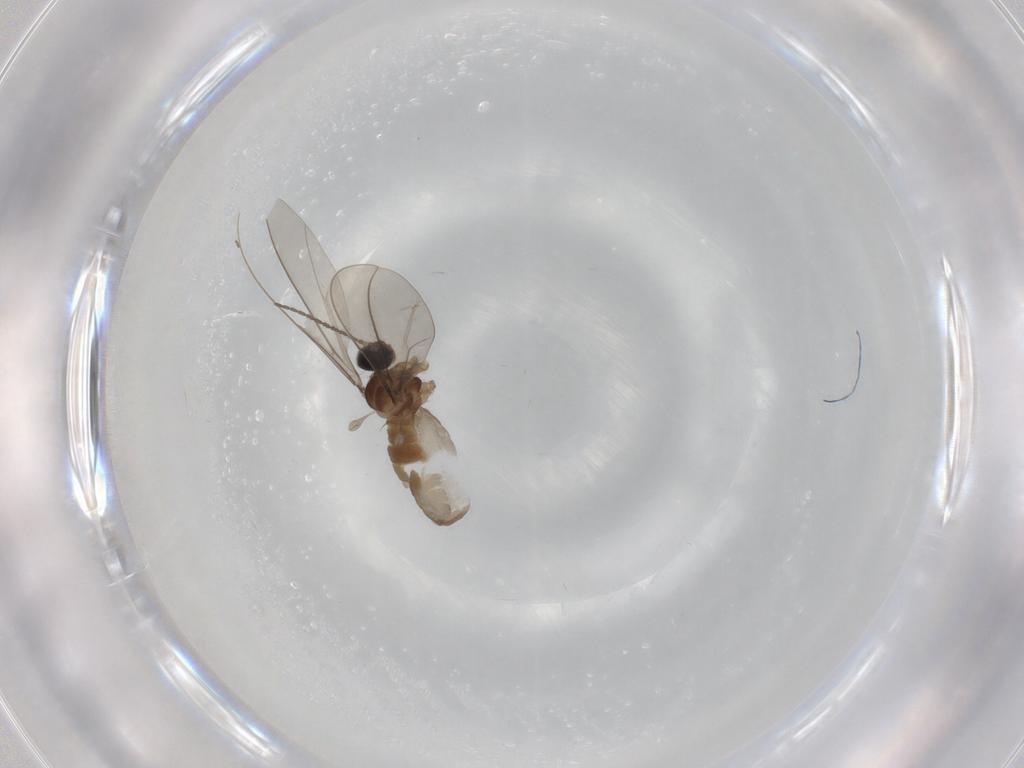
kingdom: Animalia
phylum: Arthropoda
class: Insecta
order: Diptera
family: Cecidomyiidae
